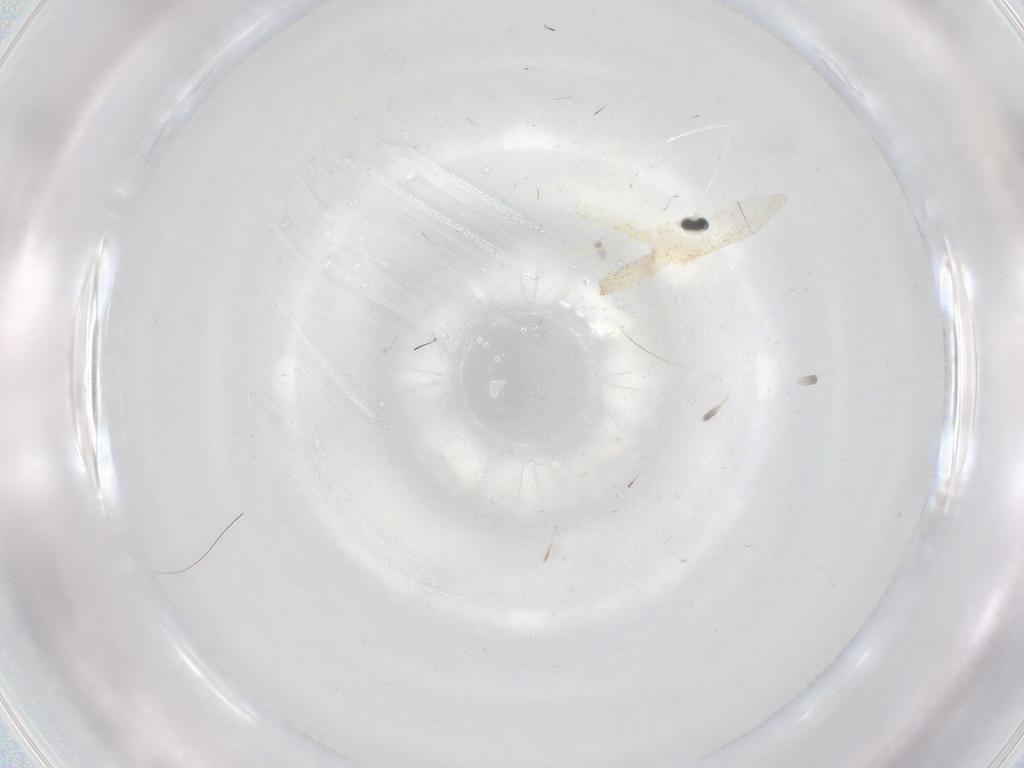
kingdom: Animalia
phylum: Arthropoda
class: Insecta
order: Diptera
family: Cecidomyiidae
